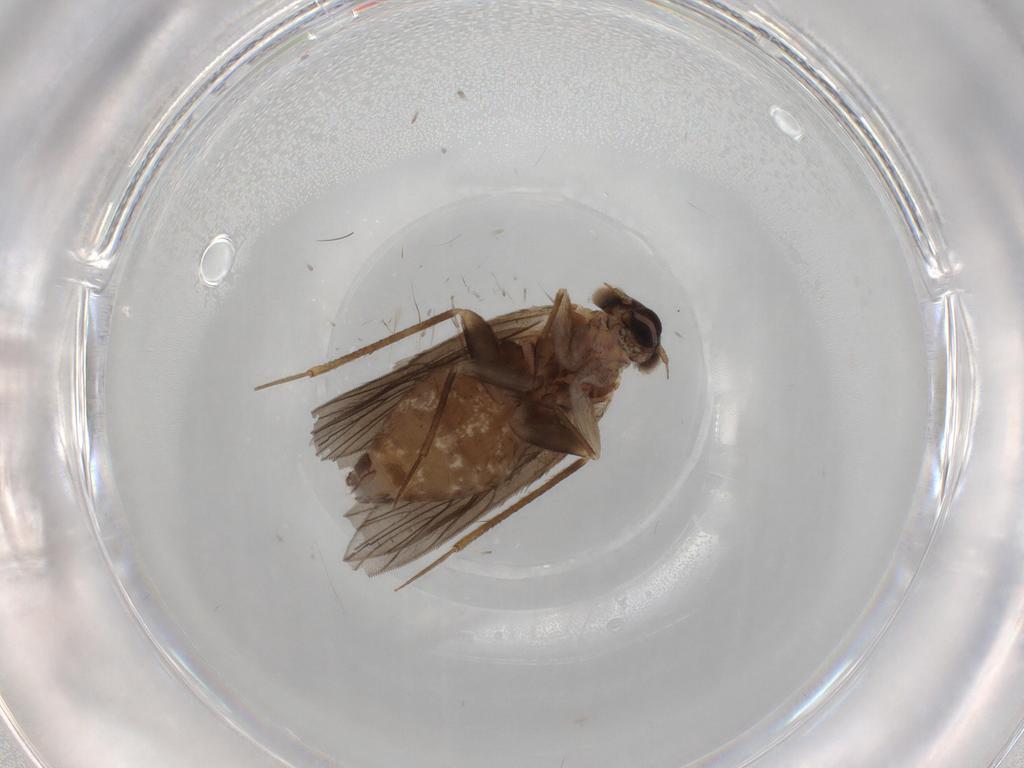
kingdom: Animalia
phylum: Arthropoda
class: Insecta
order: Psocodea
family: Lepidopsocidae
